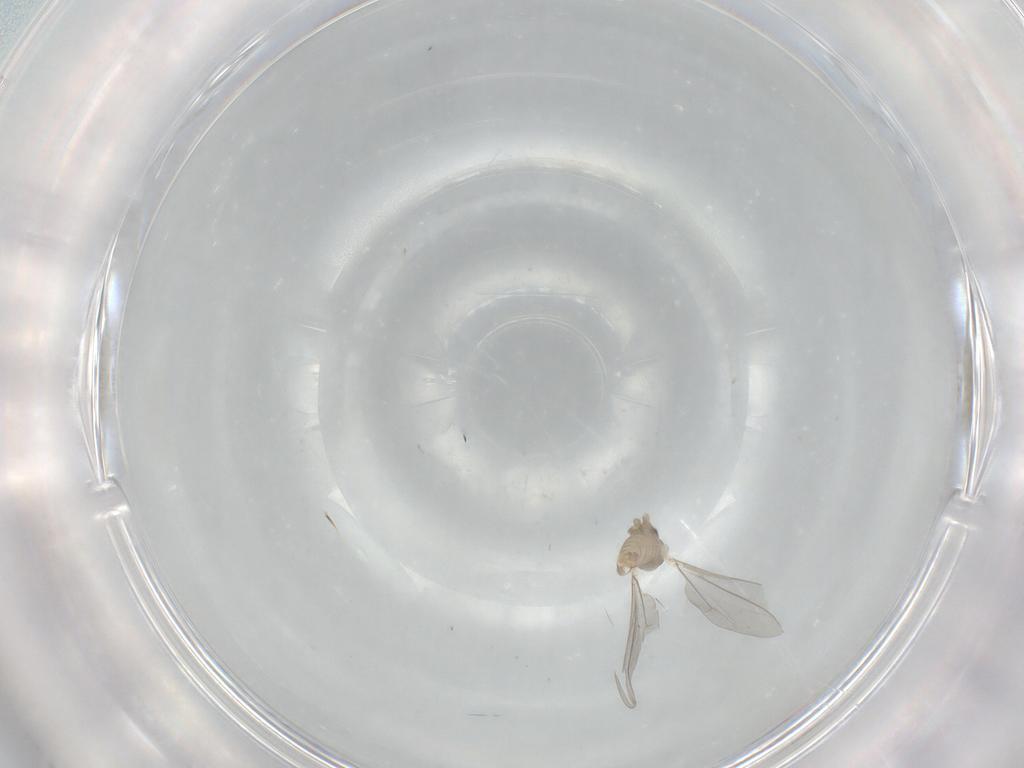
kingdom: Animalia
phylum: Arthropoda
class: Insecta
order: Diptera
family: Cecidomyiidae
